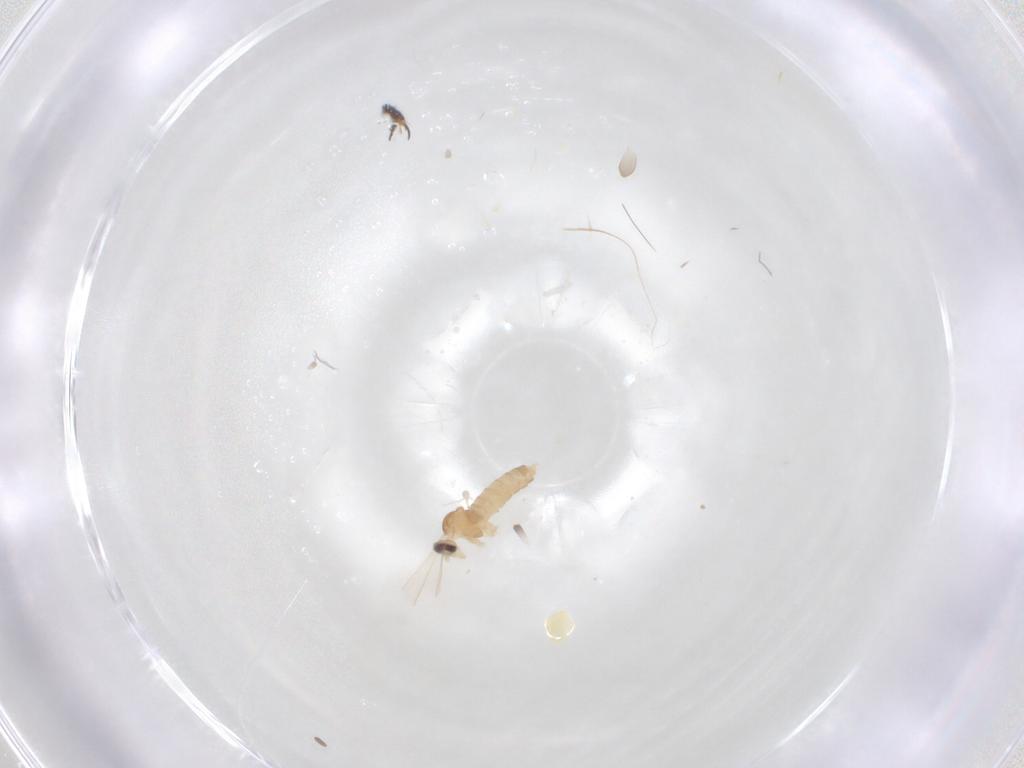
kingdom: Animalia
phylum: Arthropoda
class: Insecta
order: Diptera
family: Cecidomyiidae
